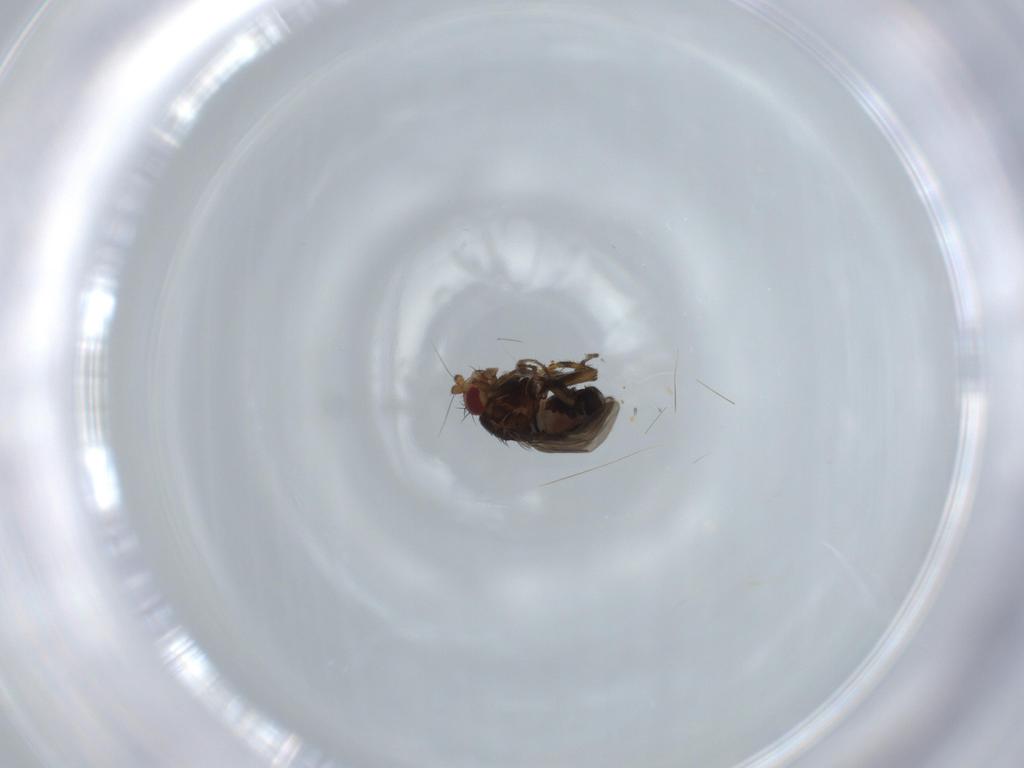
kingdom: Animalia
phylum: Arthropoda
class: Insecta
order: Diptera
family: Sphaeroceridae
